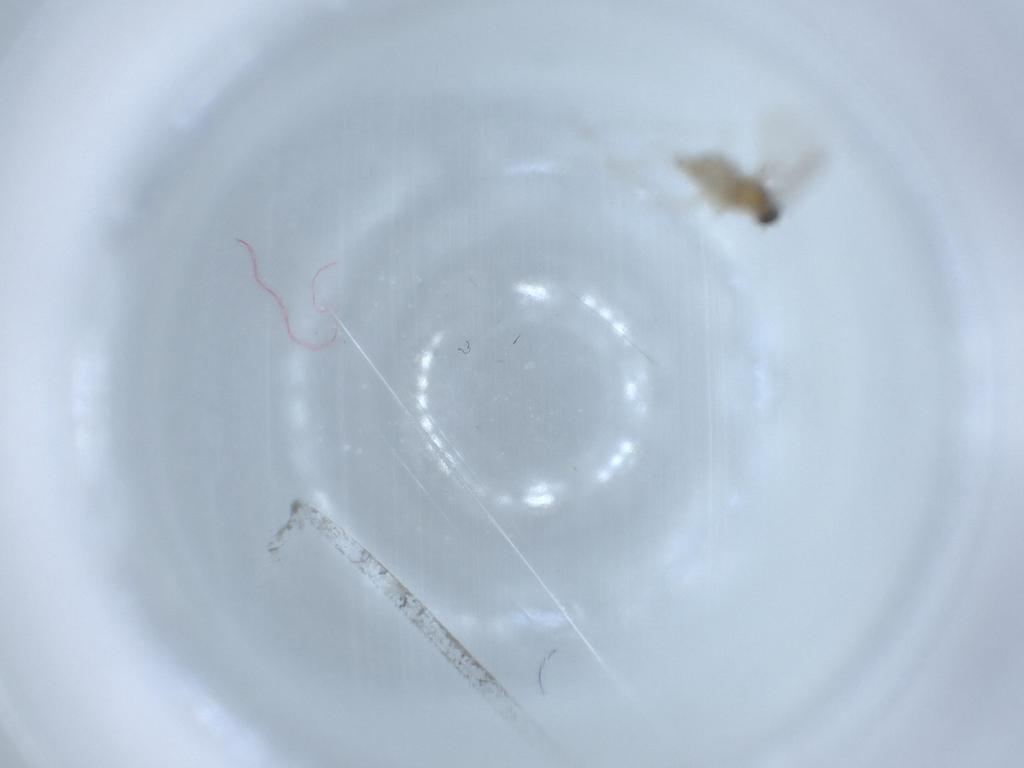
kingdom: Animalia
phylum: Arthropoda
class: Insecta
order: Diptera
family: Cecidomyiidae
